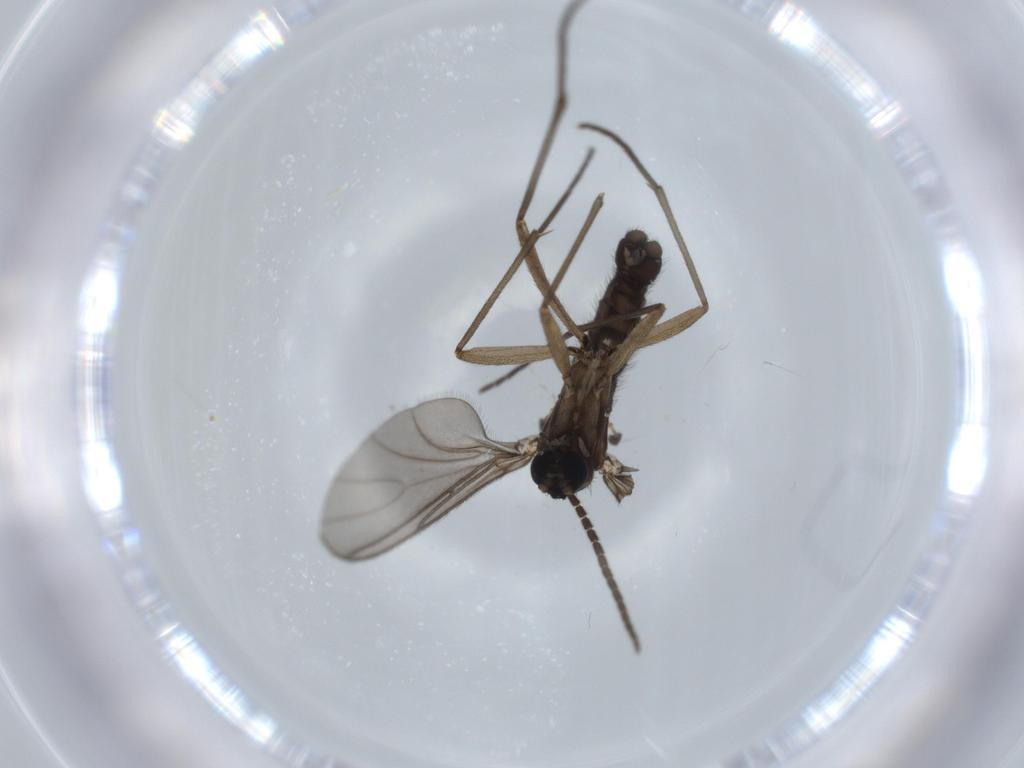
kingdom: Animalia
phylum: Arthropoda
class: Insecta
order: Diptera
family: Sciaridae
